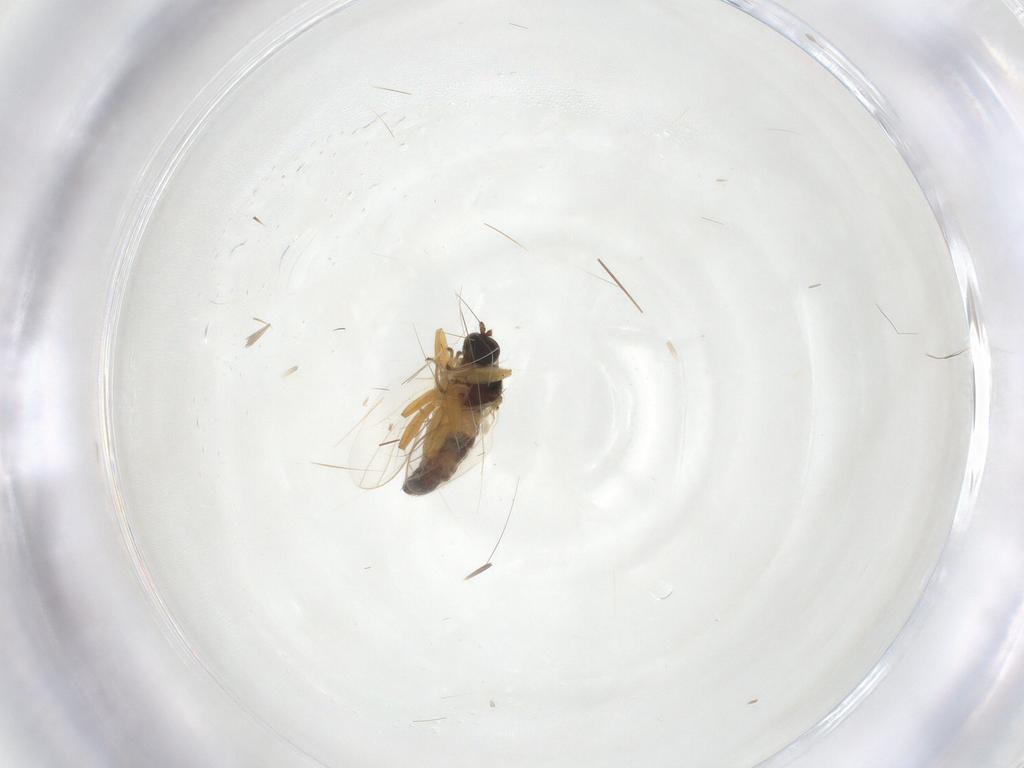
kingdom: Animalia
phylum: Arthropoda
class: Insecta
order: Diptera
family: Hybotidae
